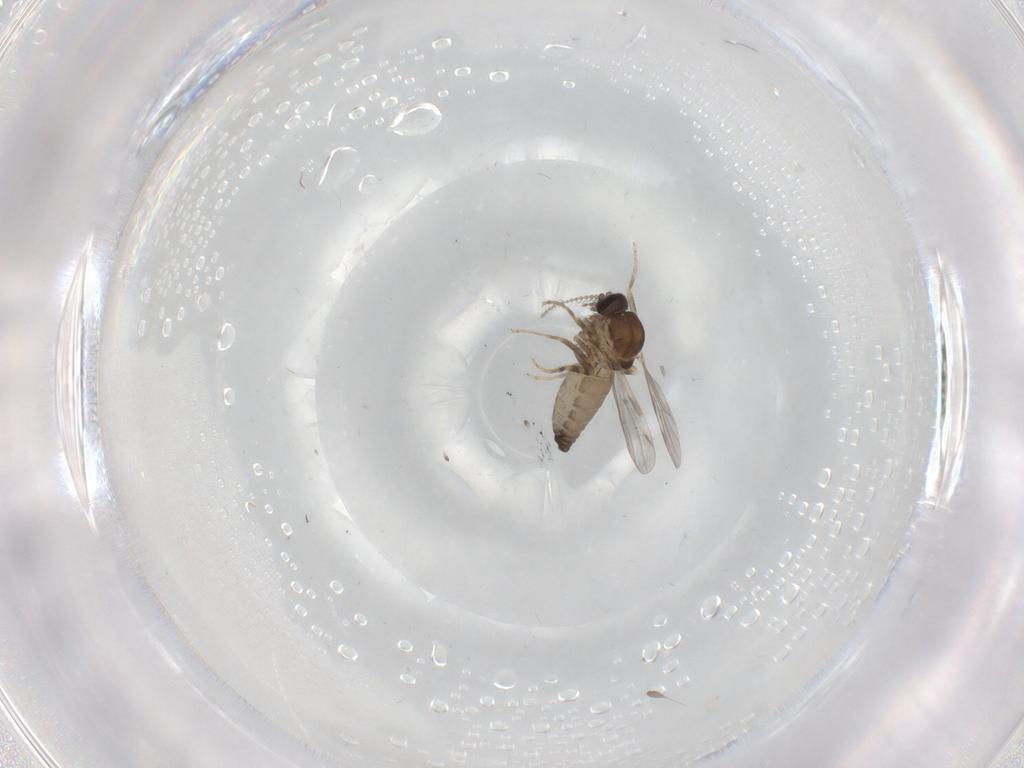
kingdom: Animalia
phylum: Arthropoda
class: Insecta
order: Diptera
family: Ceratopogonidae
